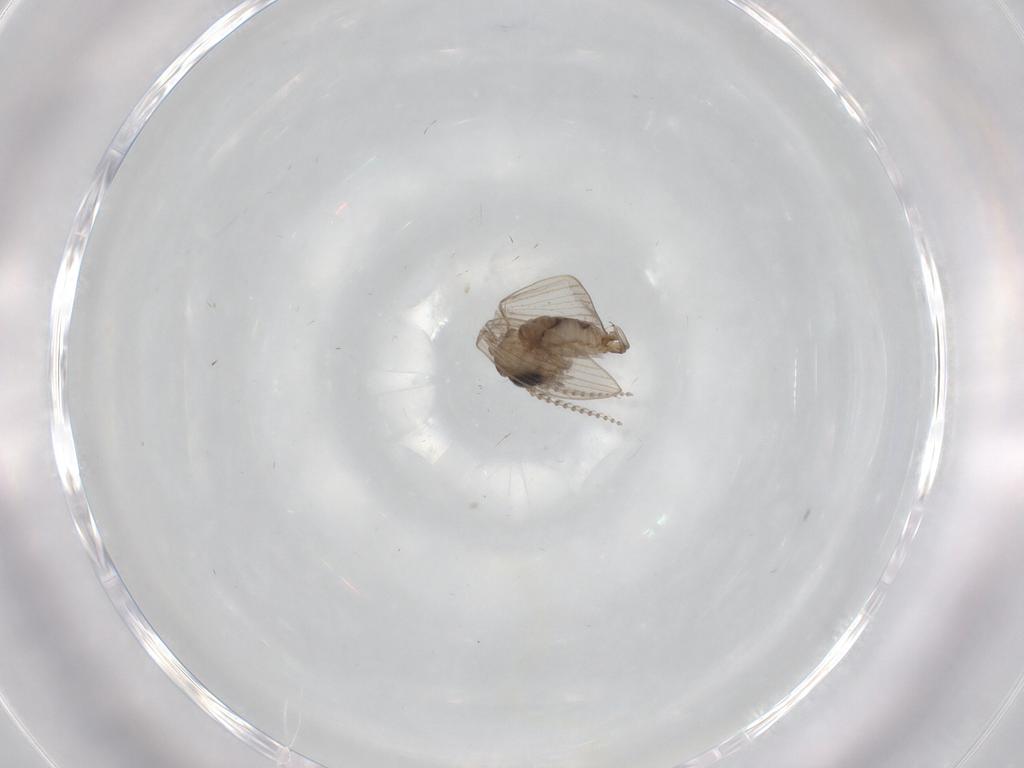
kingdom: Animalia
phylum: Arthropoda
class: Insecta
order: Diptera
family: Psychodidae
